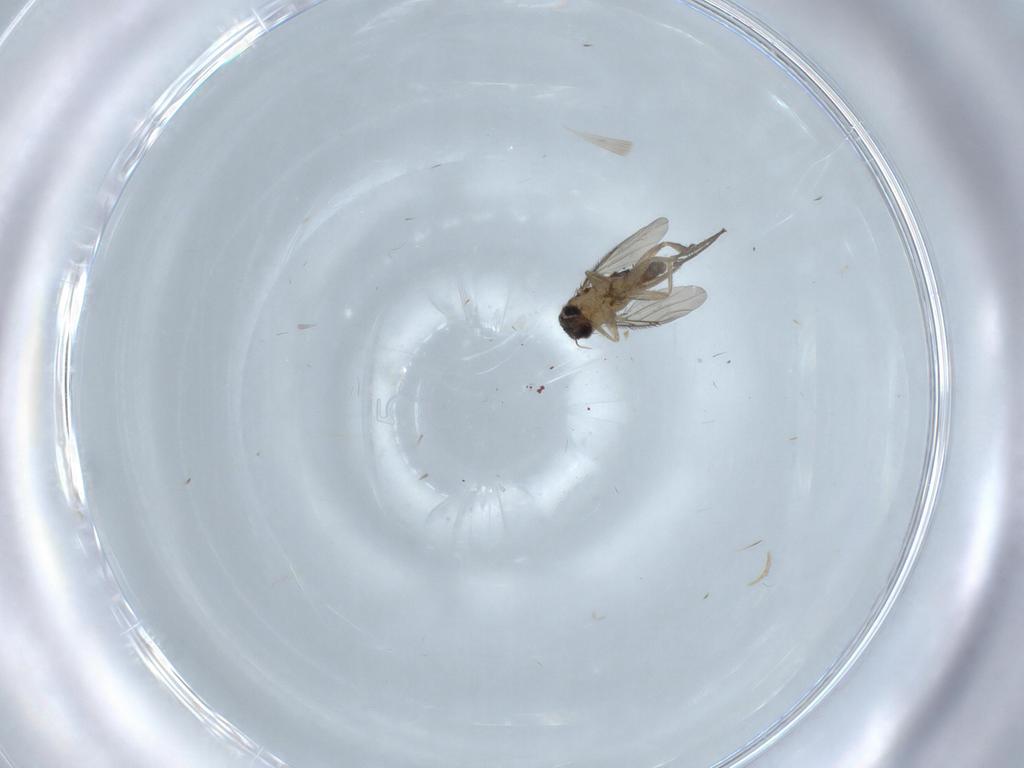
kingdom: Animalia
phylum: Arthropoda
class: Insecta
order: Diptera
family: Phoridae
